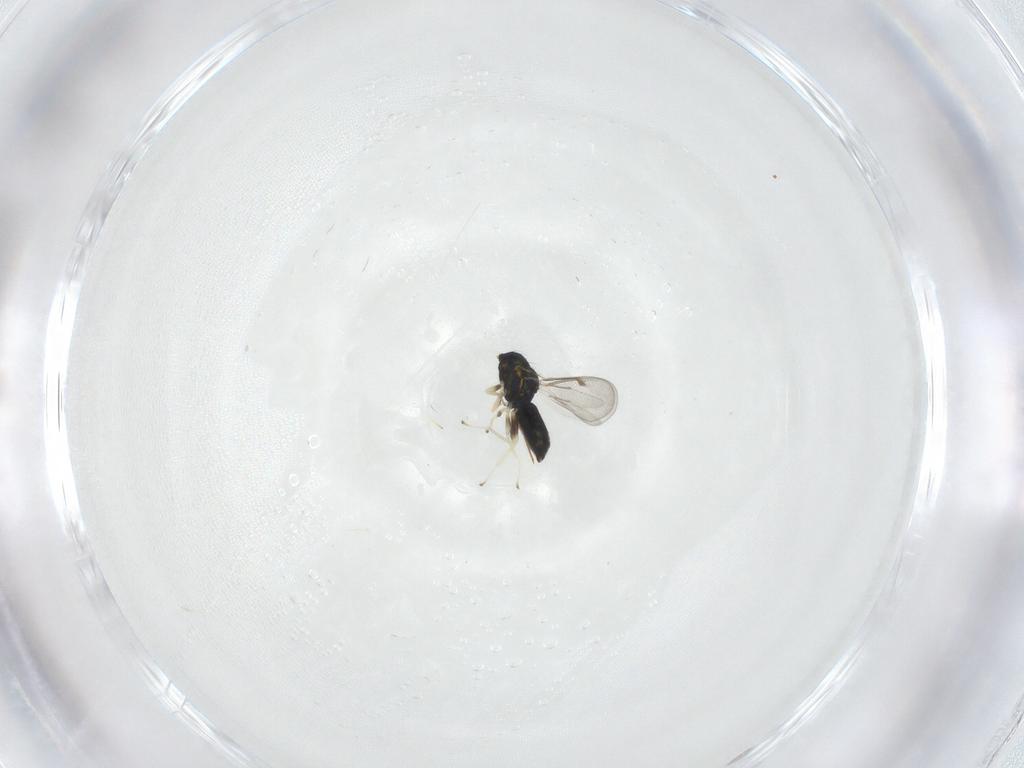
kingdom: Animalia
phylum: Arthropoda
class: Insecta
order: Hymenoptera
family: Eulophidae
